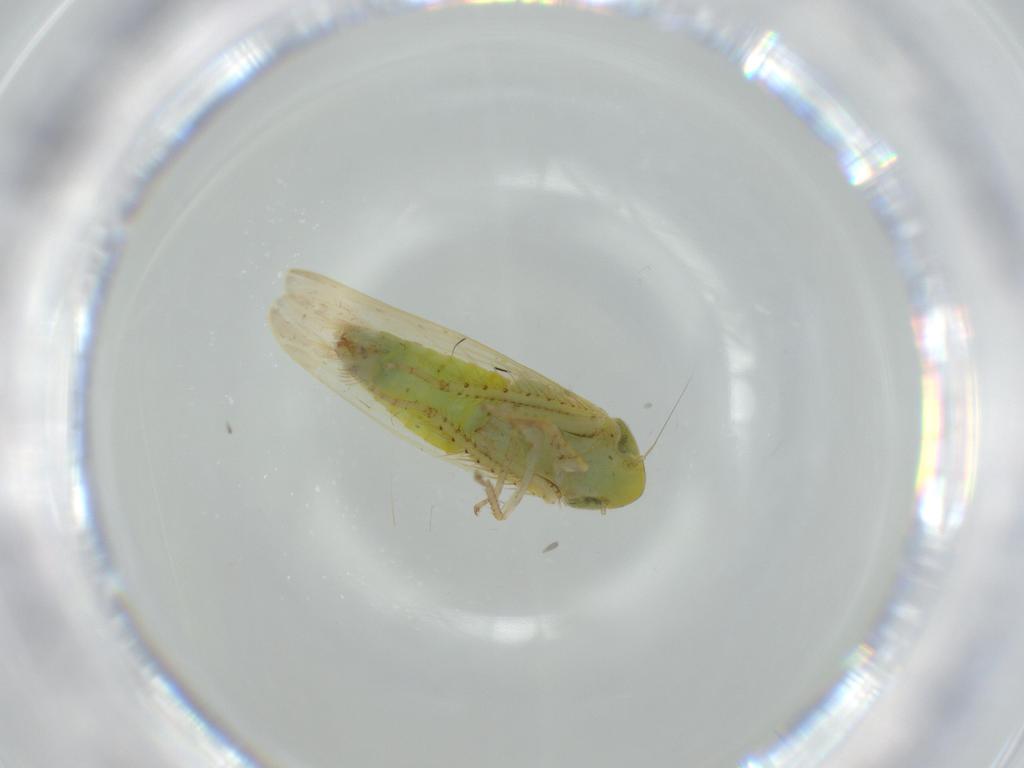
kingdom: Animalia
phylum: Arthropoda
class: Insecta
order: Hemiptera
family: Cicadellidae
